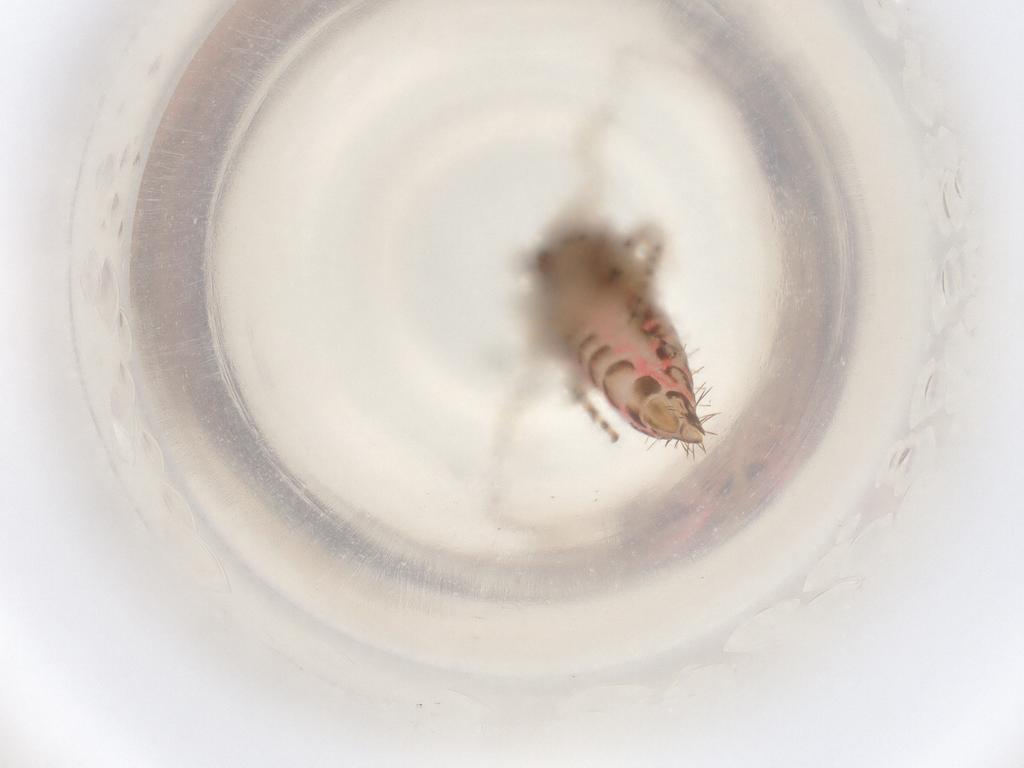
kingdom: Animalia
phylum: Arthropoda
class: Insecta
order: Hemiptera
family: Cicadellidae
